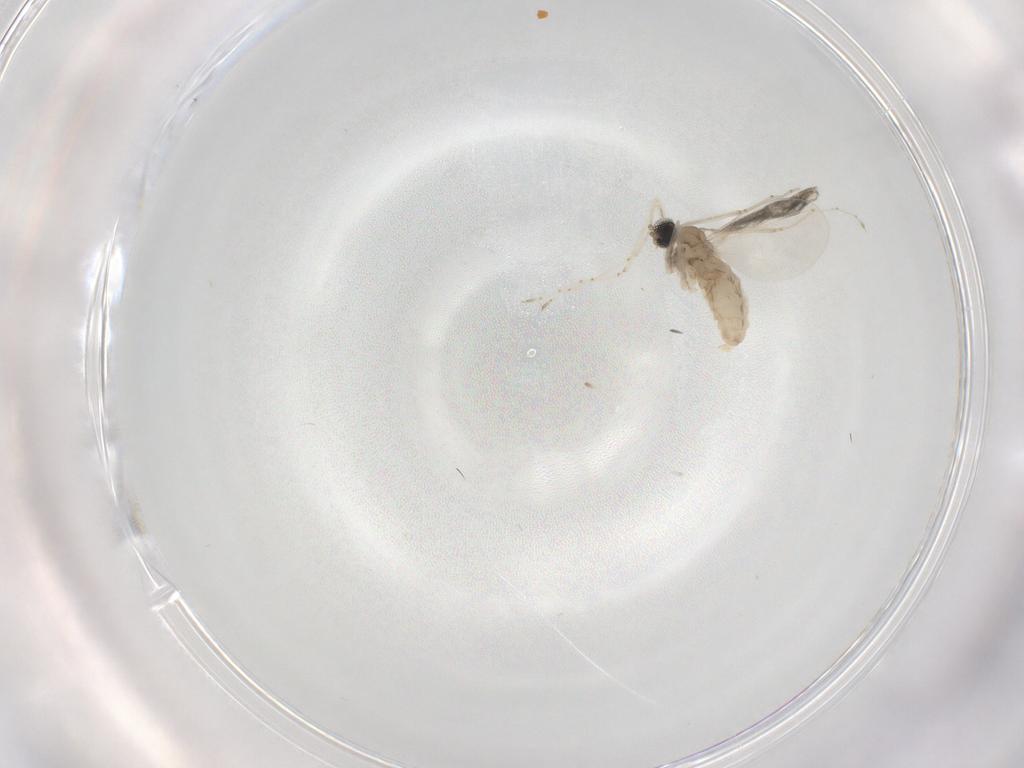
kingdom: Animalia
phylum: Arthropoda
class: Insecta
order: Diptera
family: Cecidomyiidae
